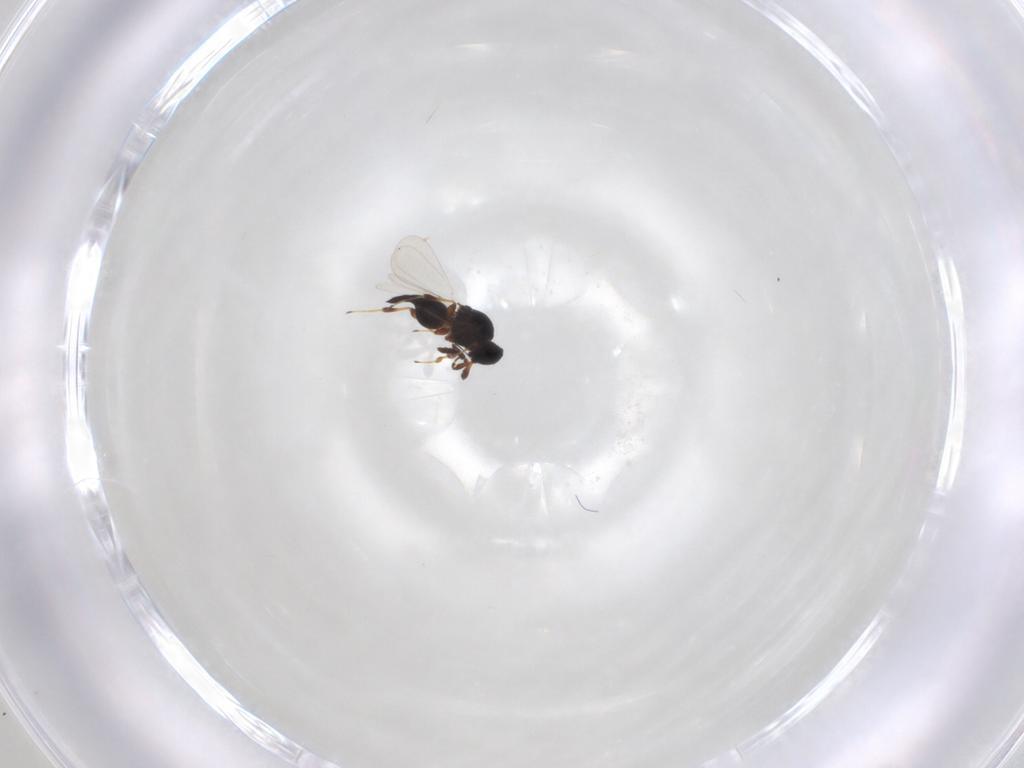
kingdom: Animalia
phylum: Arthropoda
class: Insecta
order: Hymenoptera
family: Platygastridae
